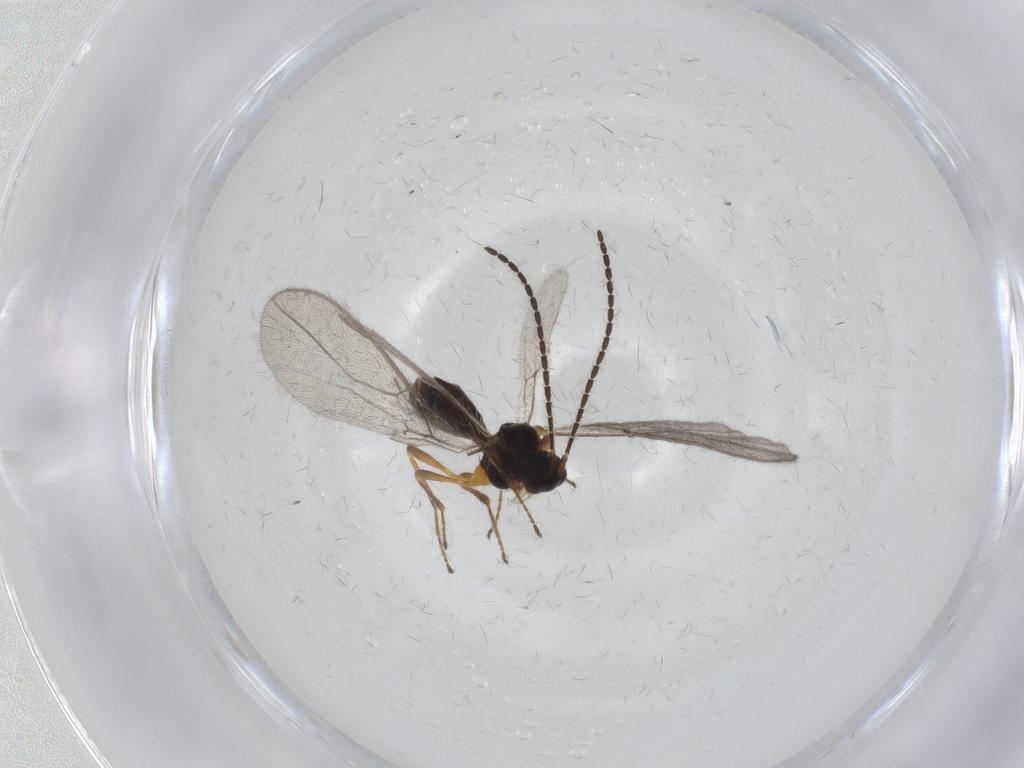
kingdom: Animalia
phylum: Arthropoda
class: Insecta
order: Hymenoptera
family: Braconidae
